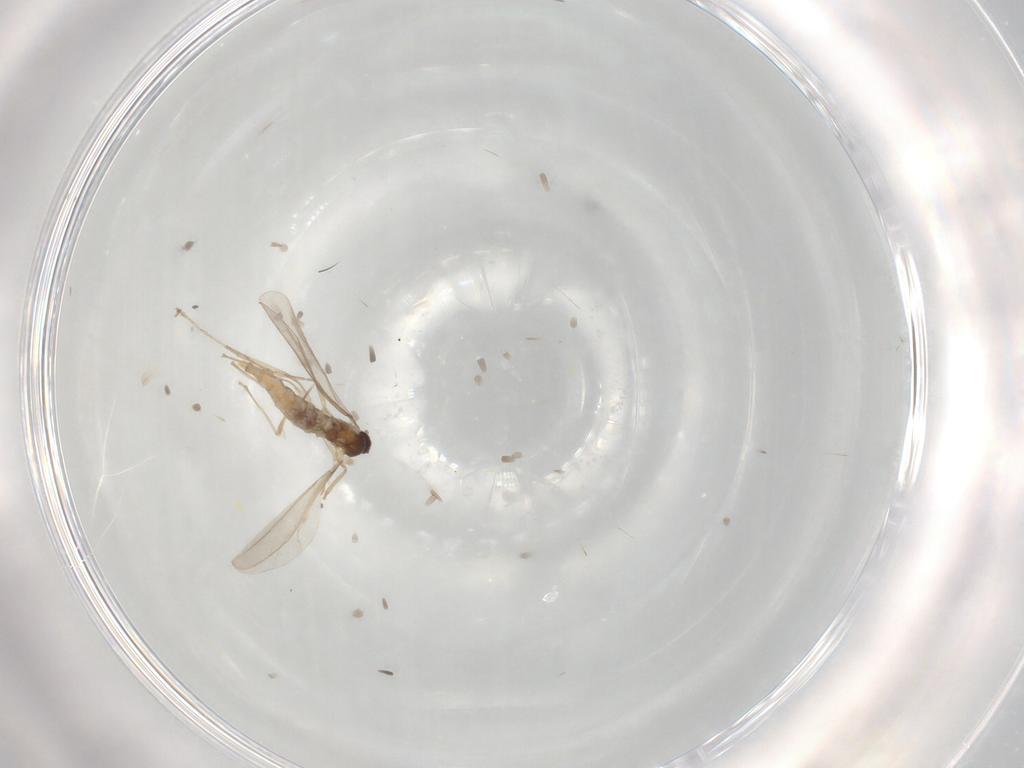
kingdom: Animalia
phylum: Arthropoda
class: Insecta
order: Diptera
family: Cecidomyiidae
